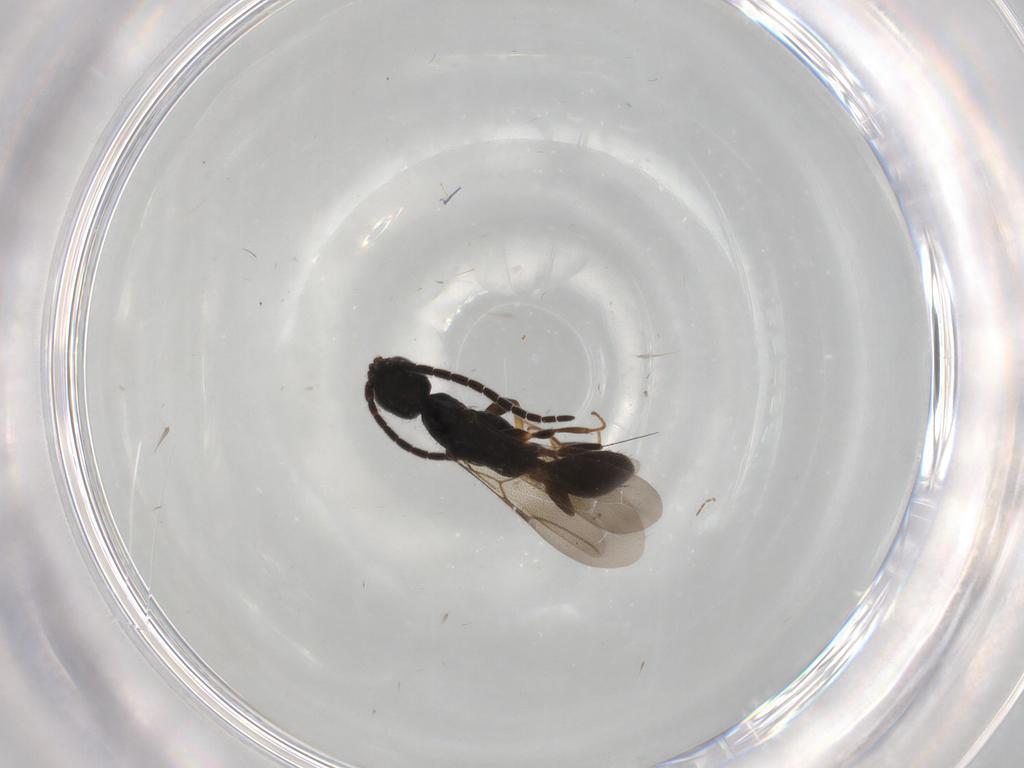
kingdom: Animalia
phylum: Arthropoda
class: Insecta
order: Hymenoptera
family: Bethylidae
